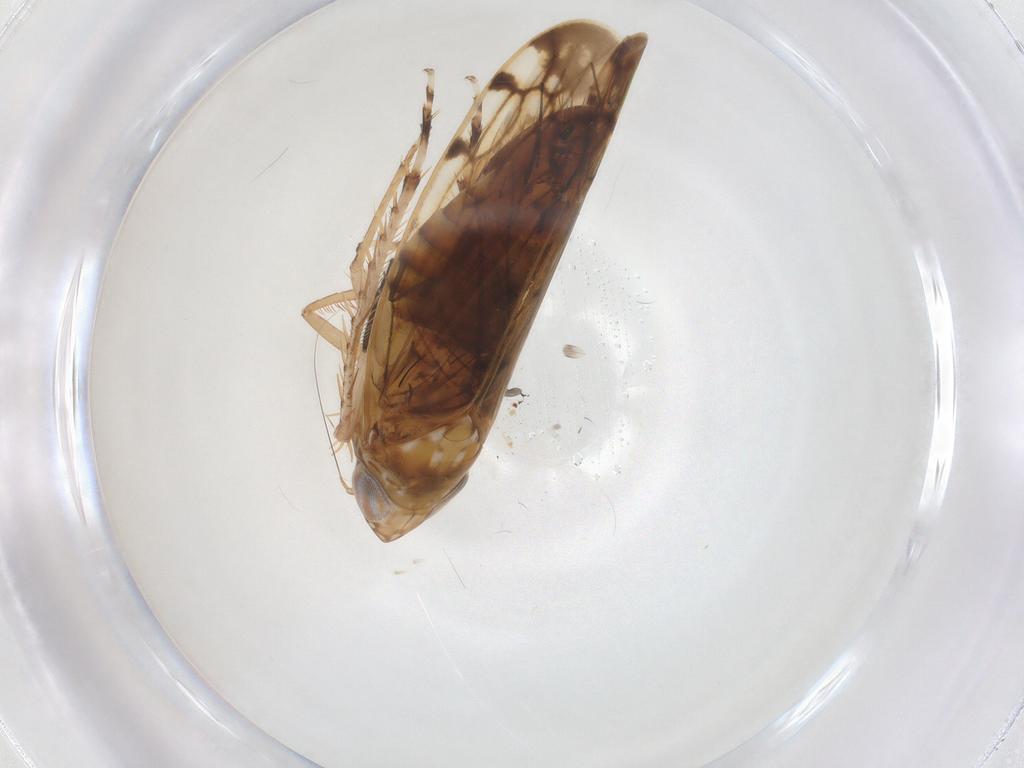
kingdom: Animalia
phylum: Arthropoda
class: Insecta
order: Hemiptera
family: Cicadellidae
